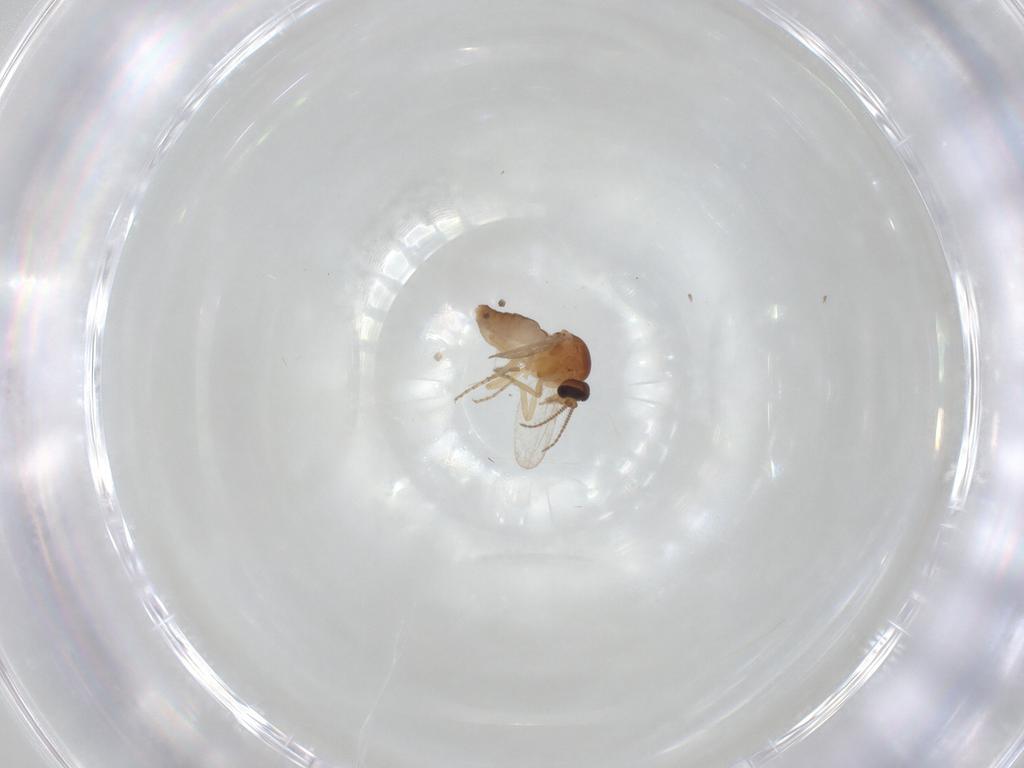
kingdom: Animalia
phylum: Arthropoda
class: Insecta
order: Diptera
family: Ceratopogonidae
